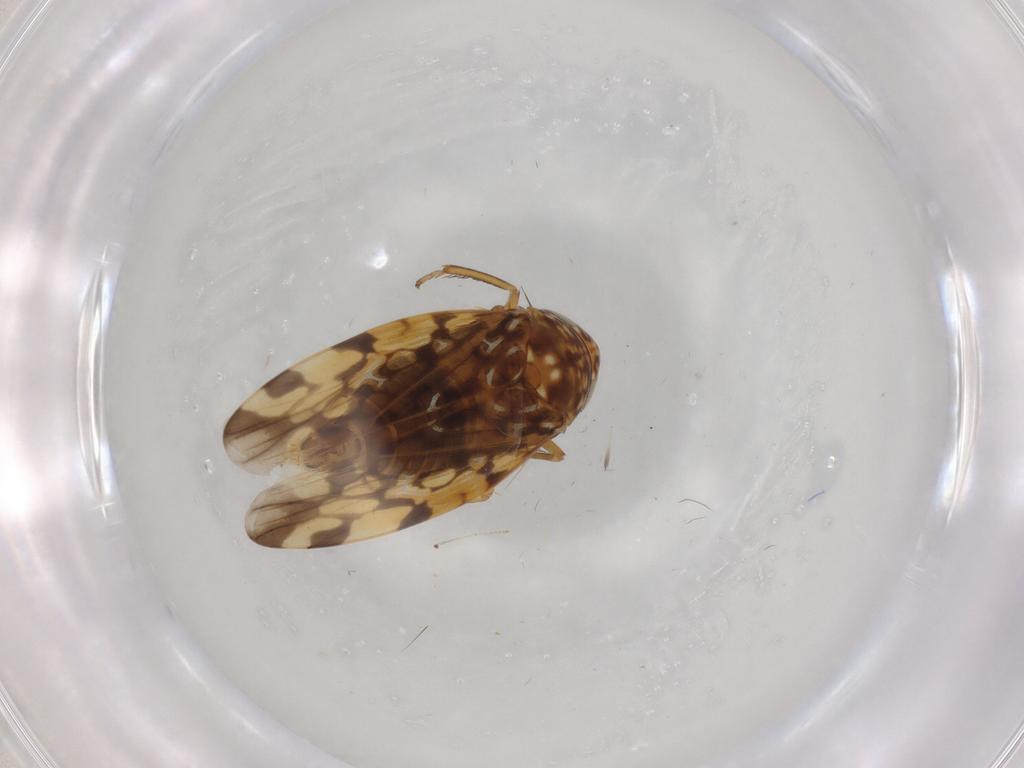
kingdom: Animalia
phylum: Arthropoda
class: Insecta
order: Hemiptera
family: Cicadellidae
